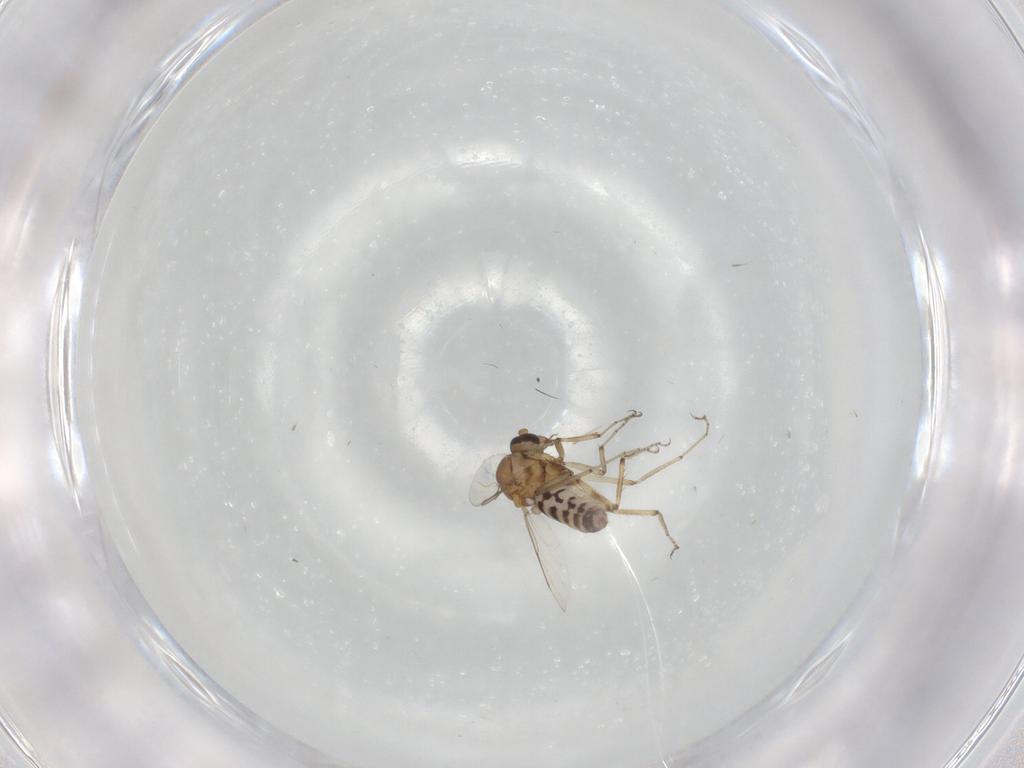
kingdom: Animalia
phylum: Arthropoda
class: Insecta
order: Diptera
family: Ceratopogonidae
